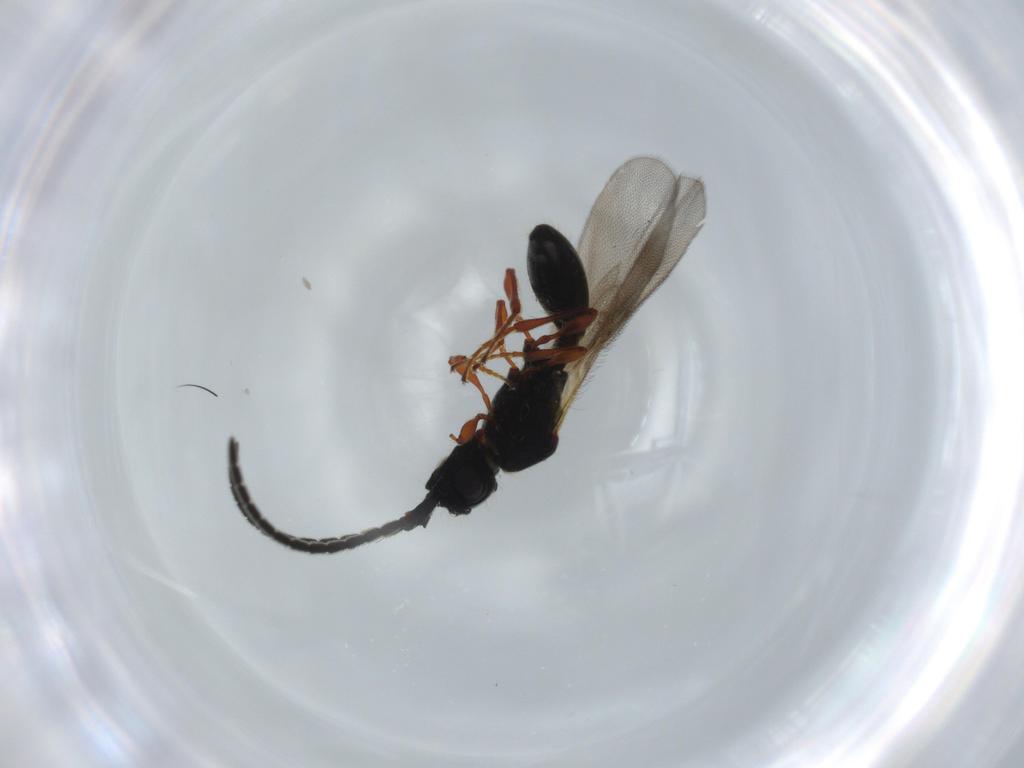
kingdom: Animalia
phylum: Arthropoda
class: Insecta
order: Hymenoptera
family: Diapriidae
